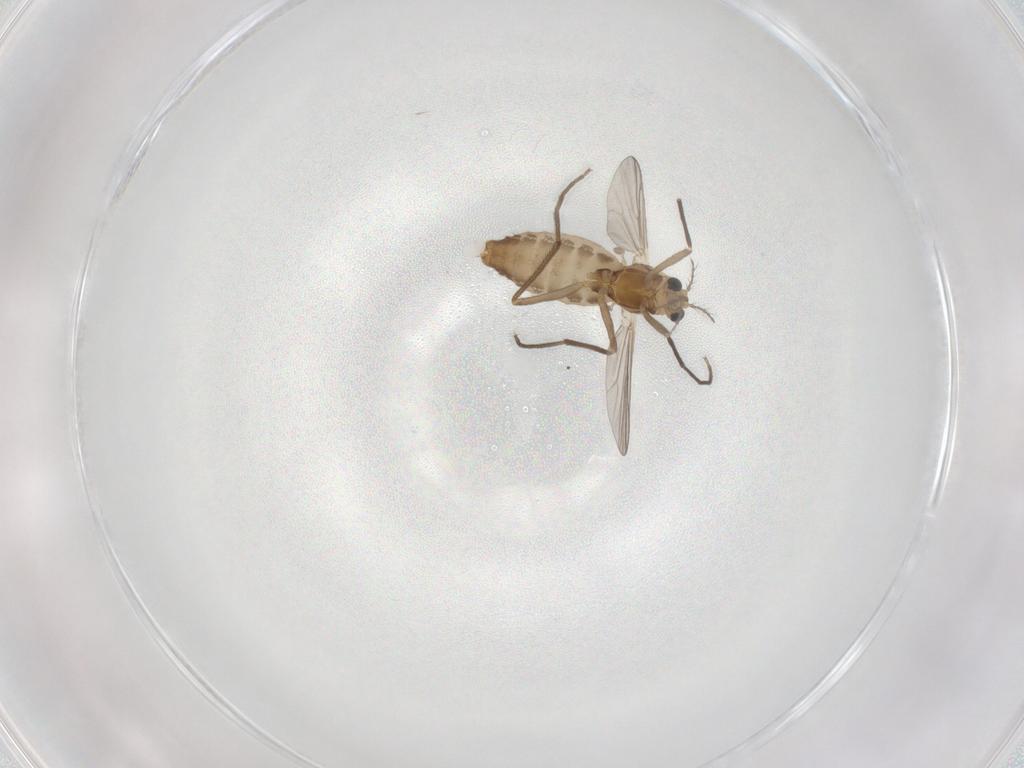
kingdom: Animalia
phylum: Arthropoda
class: Insecta
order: Diptera
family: Chironomidae
